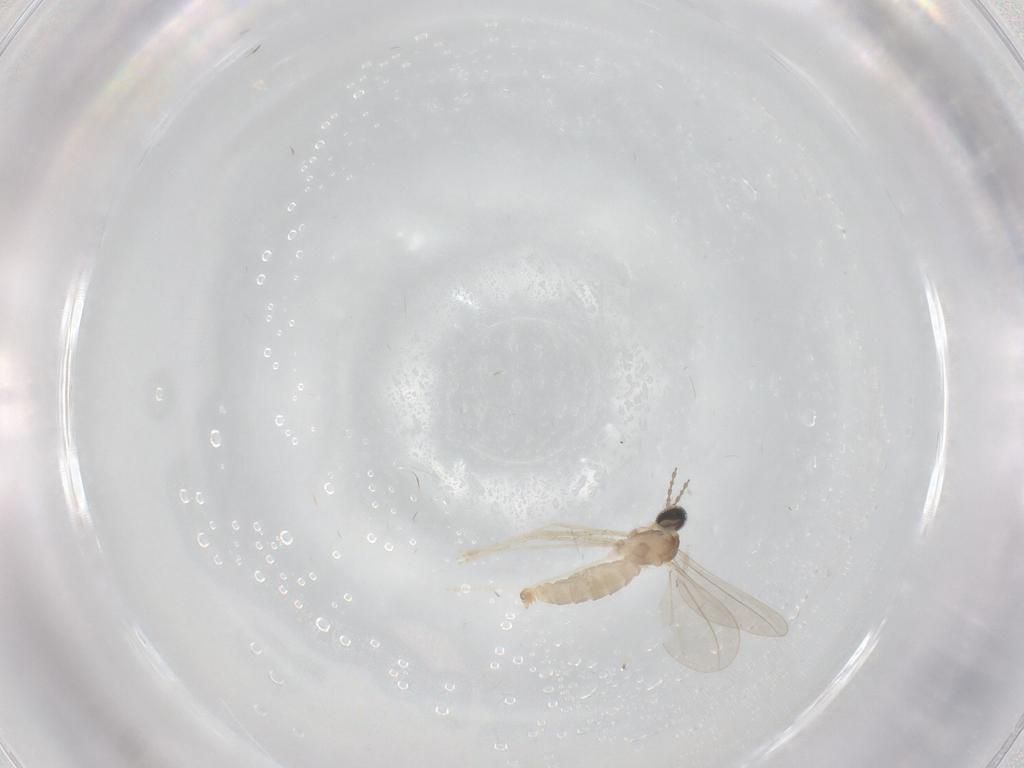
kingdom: Animalia
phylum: Arthropoda
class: Insecta
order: Diptera
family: Cecidomyiidae
